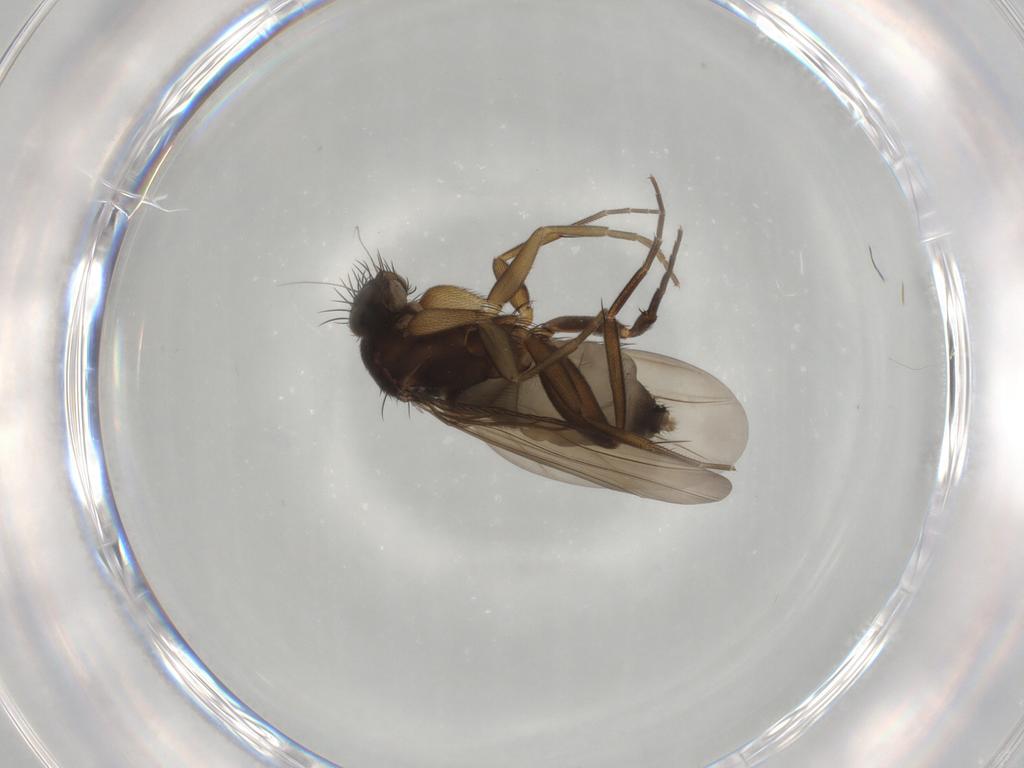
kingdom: Animalia
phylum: Arthropoda
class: Insecta
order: Diptera
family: Phoridae
